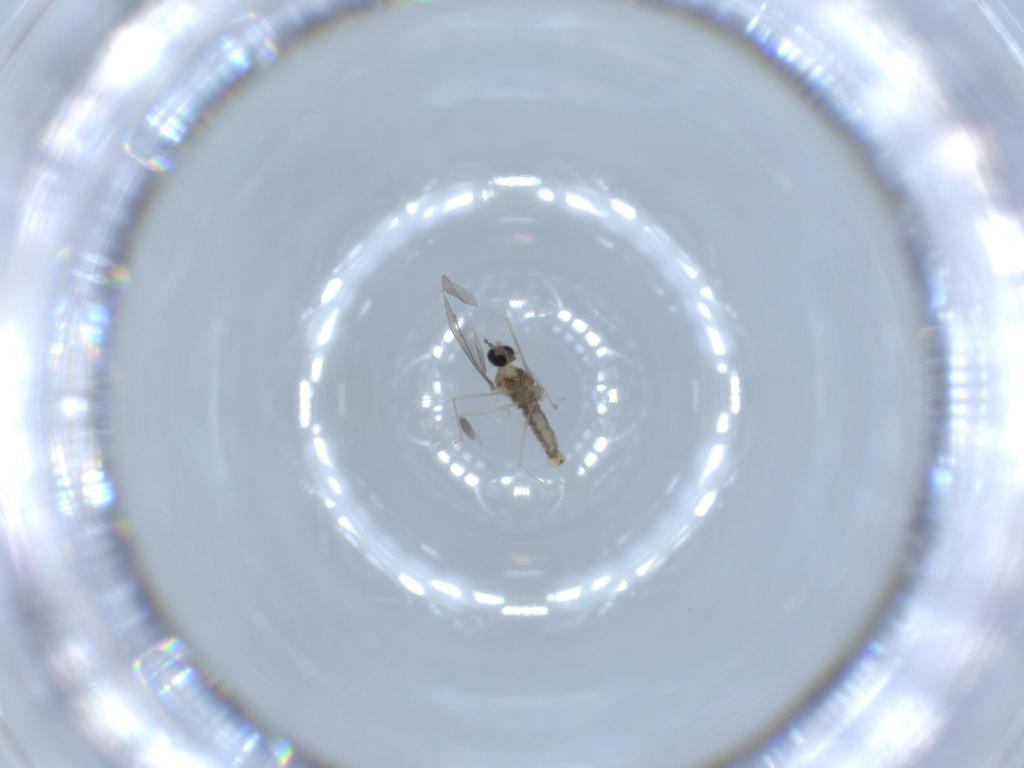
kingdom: Animalia
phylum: Arthropoda
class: Insecta
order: Diptera
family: Cecidomyiidae
